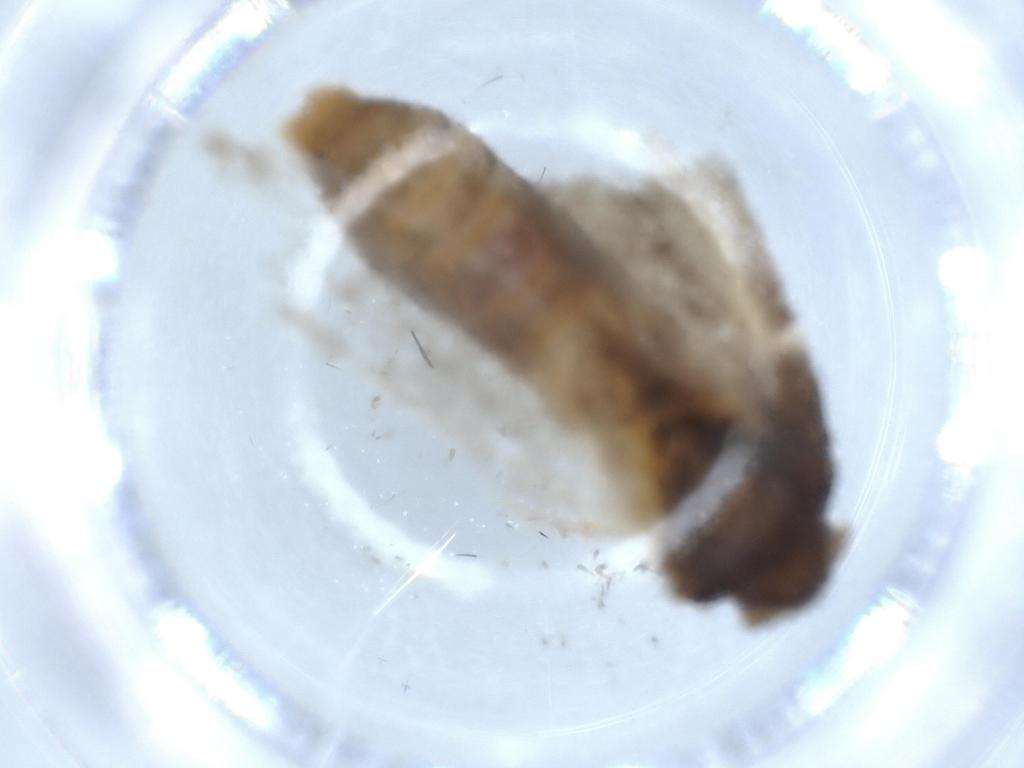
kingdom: Animalia
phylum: Arthropoda
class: Insecta
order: Lepidoptera
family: Blastobasidae
